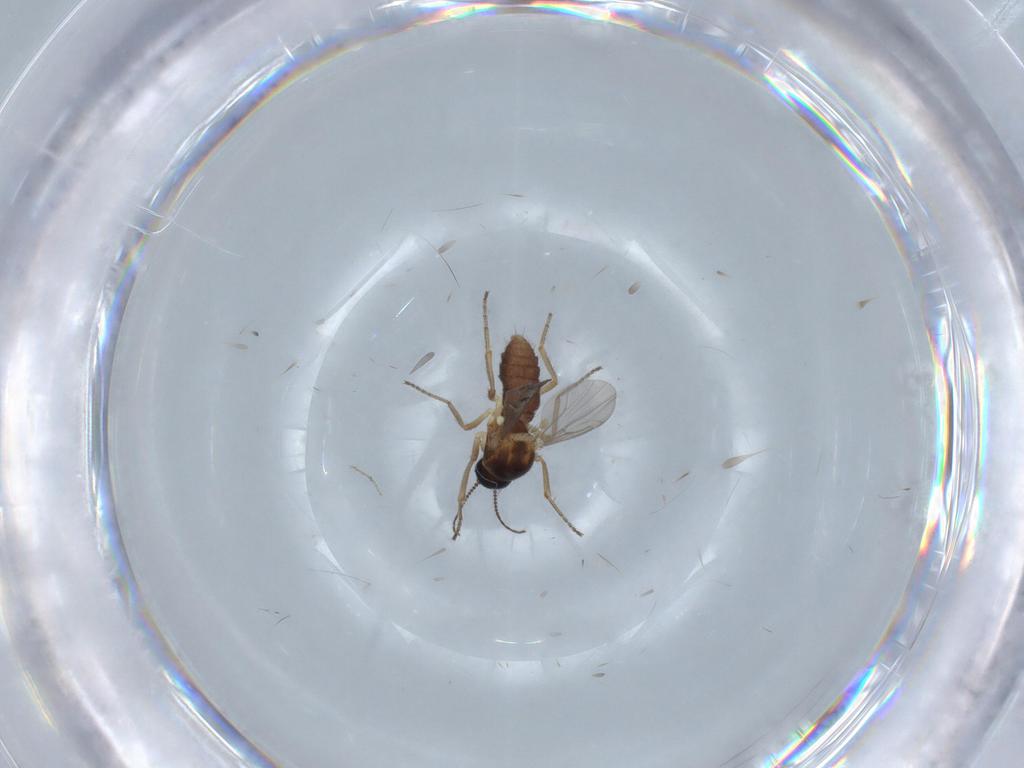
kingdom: Animalia
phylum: Arthropoda
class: Insecta
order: Diptera
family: Ceratopogonidae
